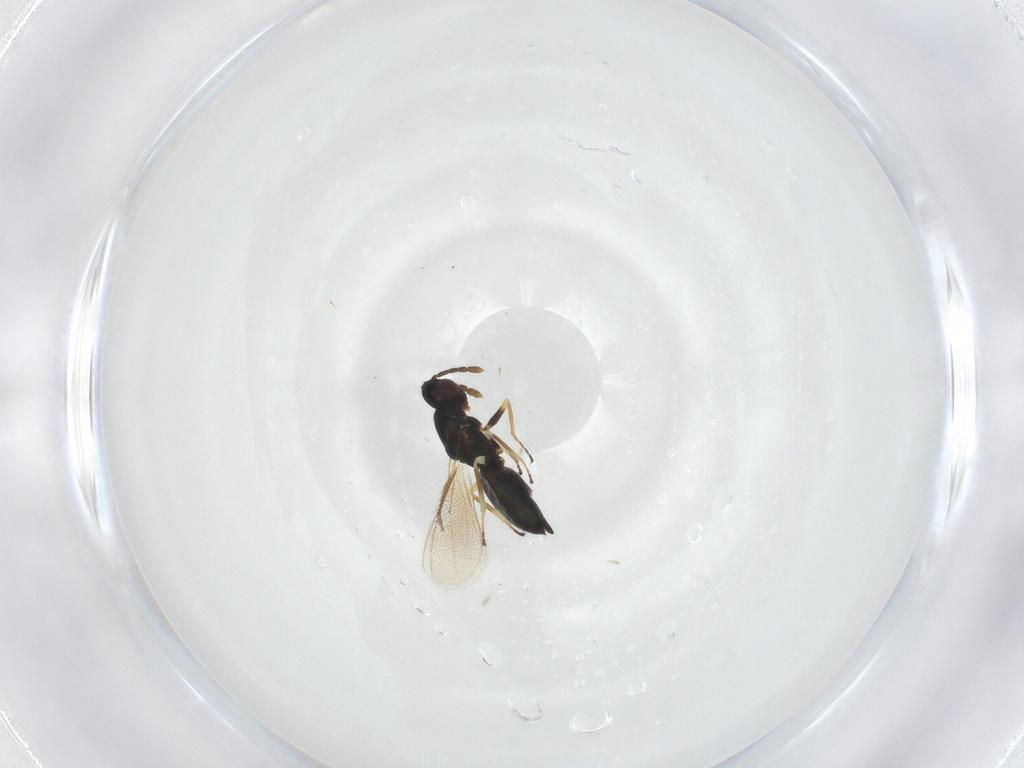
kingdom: Animalia
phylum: Arthropoda
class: Insecta
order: Hymenoptera
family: Eulophidae
